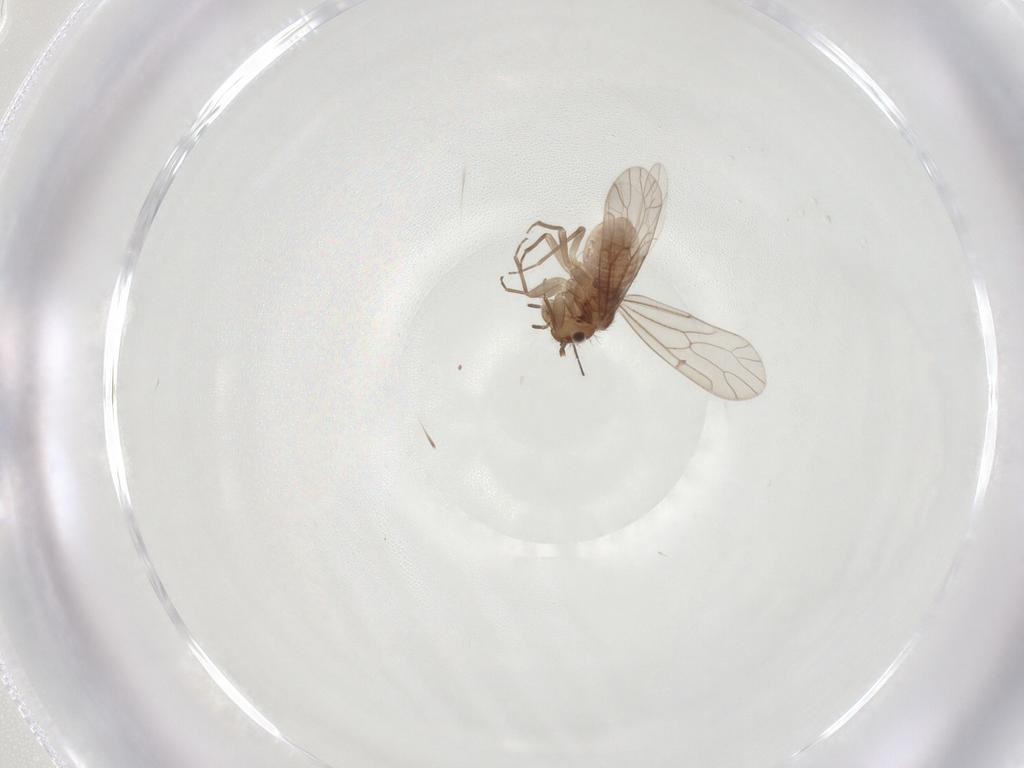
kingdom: Animalia
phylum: Arthropoda
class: Insecta
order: Psocodea
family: Ectopsocidae
